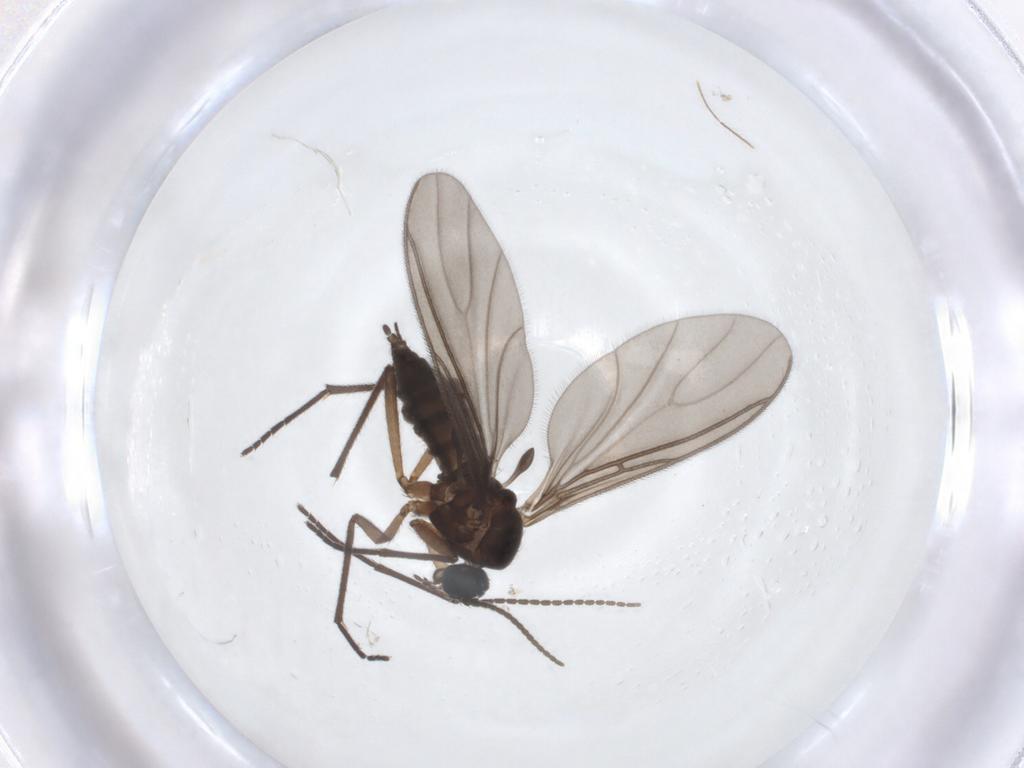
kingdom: Animalia
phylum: Arthropoda
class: Insecta
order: Diptera
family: Sciaridae
